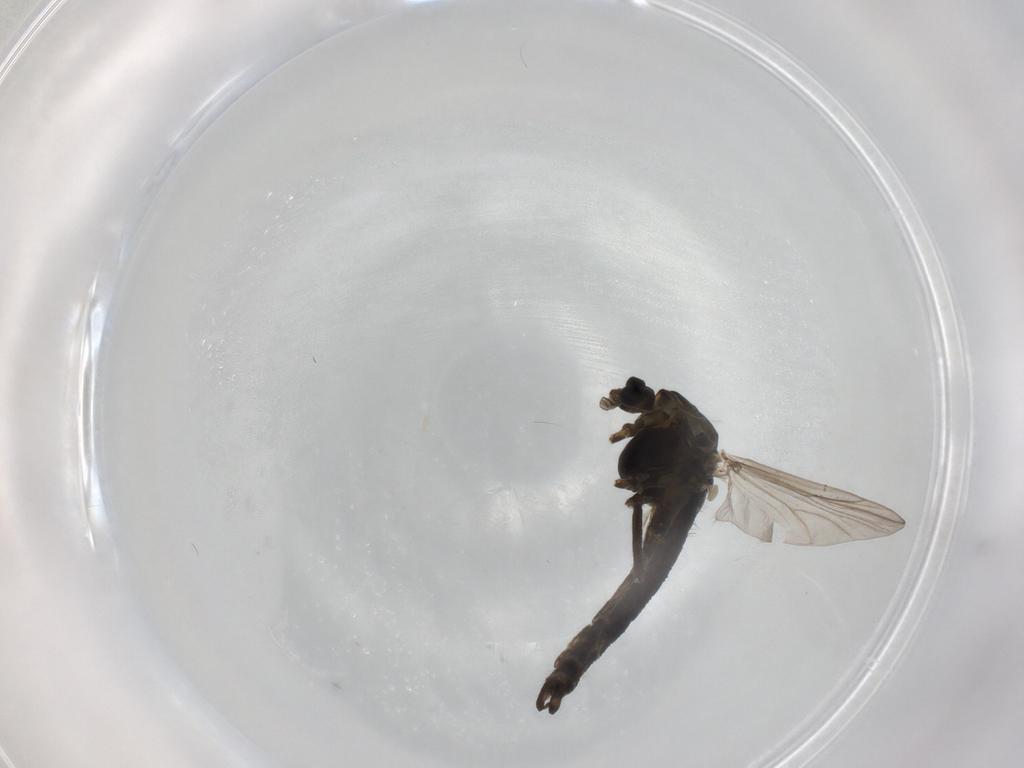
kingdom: Animalia
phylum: Arthropoda
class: Insecta
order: Diptera
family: Chironomidae
